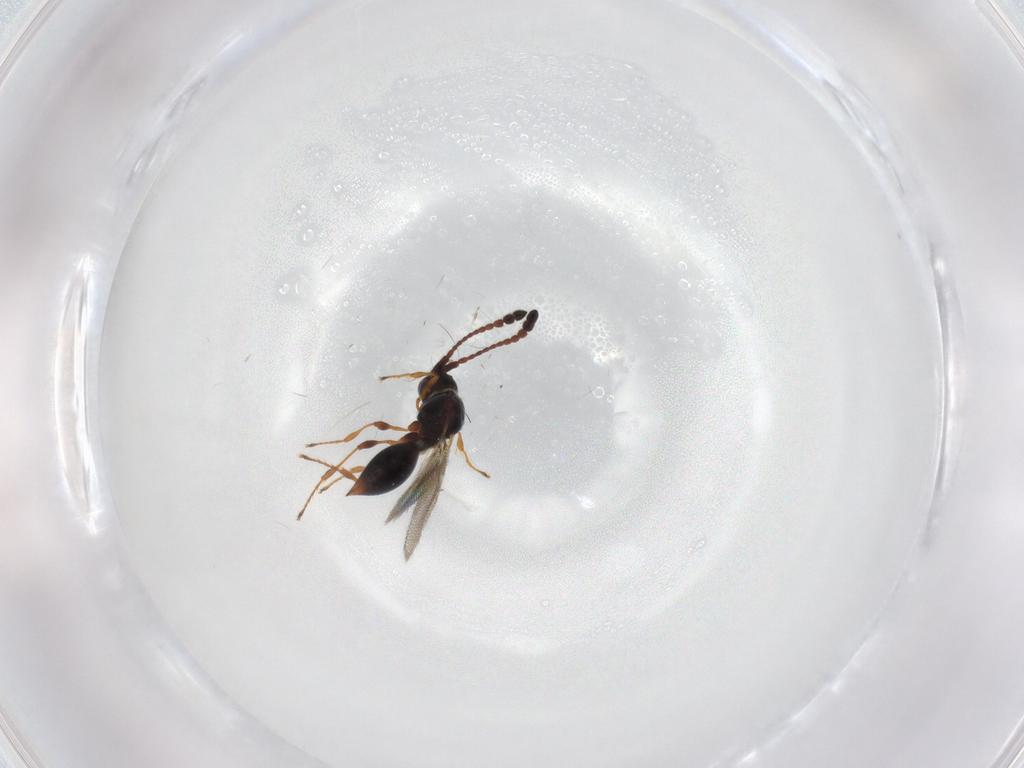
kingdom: Animalia
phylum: Arthropoda
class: Insecta
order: Hymenoptera
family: Diapriidae
